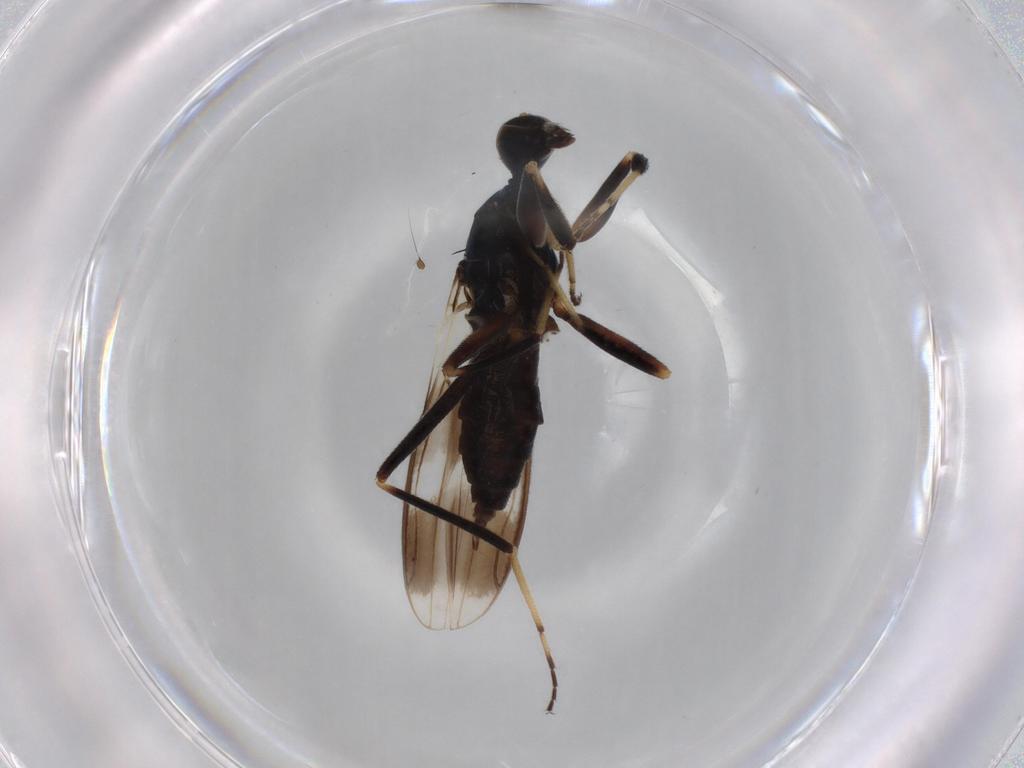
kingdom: Animalia
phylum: Arthropoda
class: Insecta
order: Diptera
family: Hybotidae
